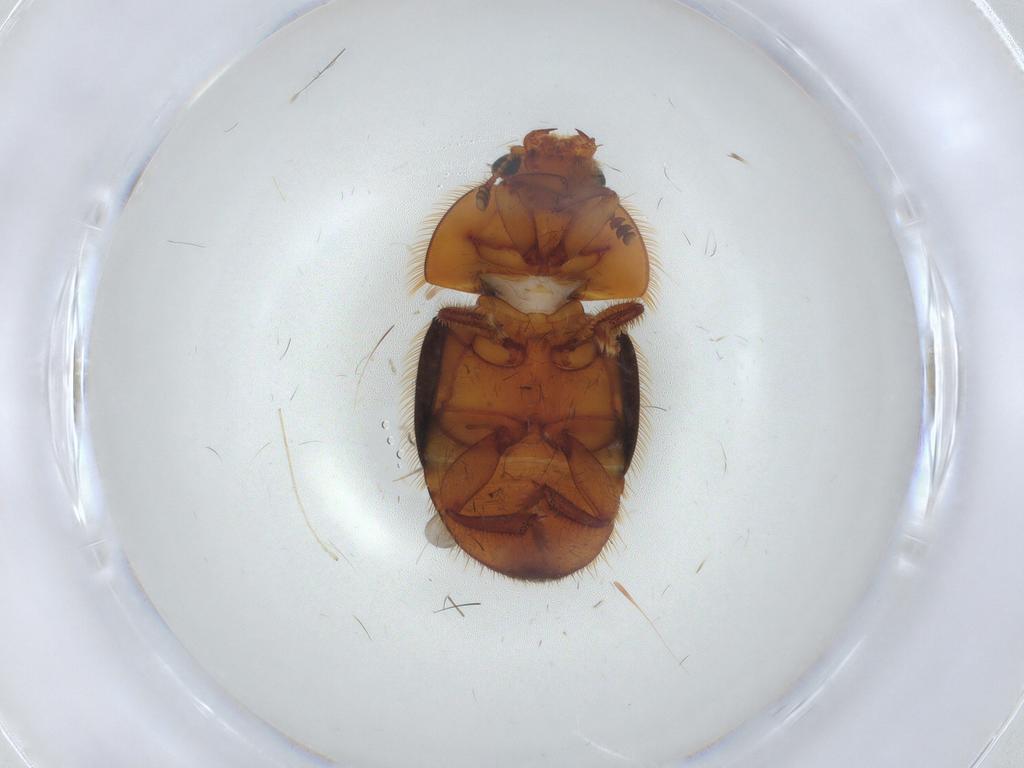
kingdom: Animalia
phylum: Arthropoda
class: Insecta
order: Coleoptera
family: Nitidulidae
